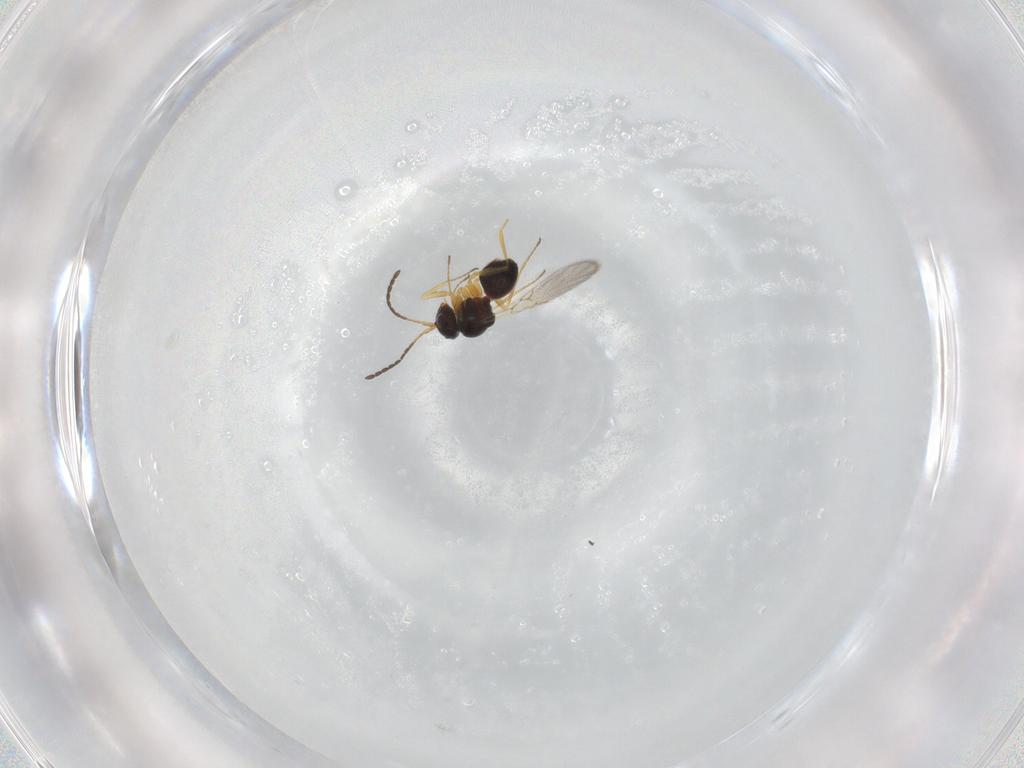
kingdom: Animalia
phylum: Arthropoda
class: Insecta
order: Hymenoptera
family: Figitidae
